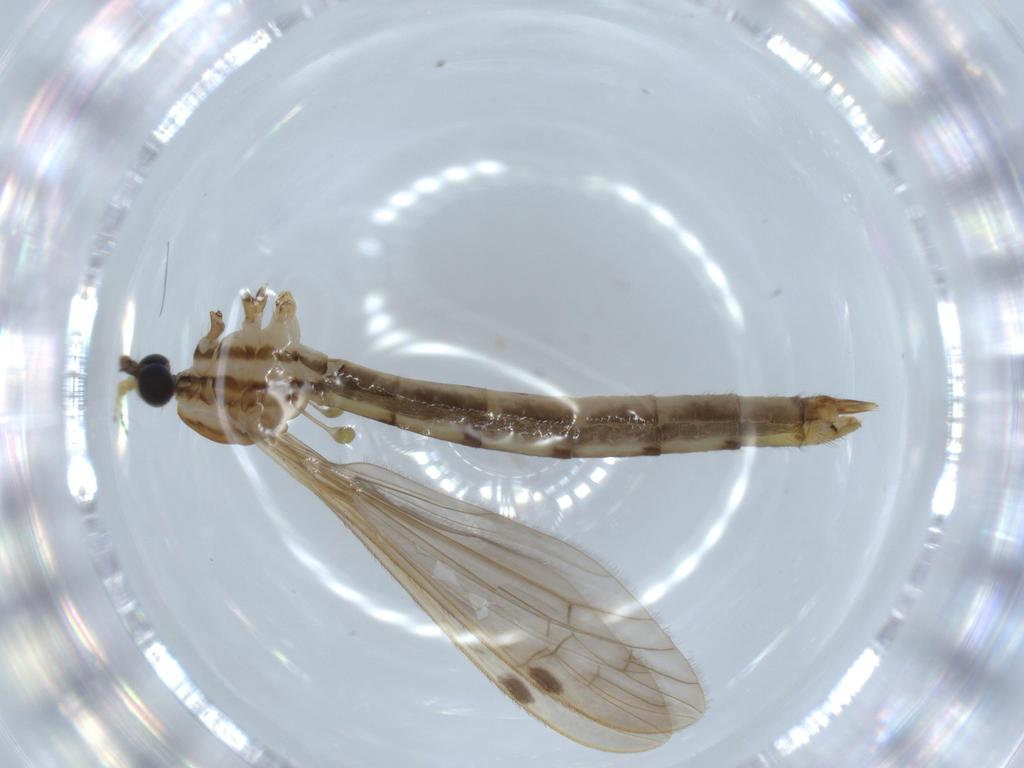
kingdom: Animalia
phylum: Arthropoda
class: Insecta
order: Diptera
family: Limoniidae
